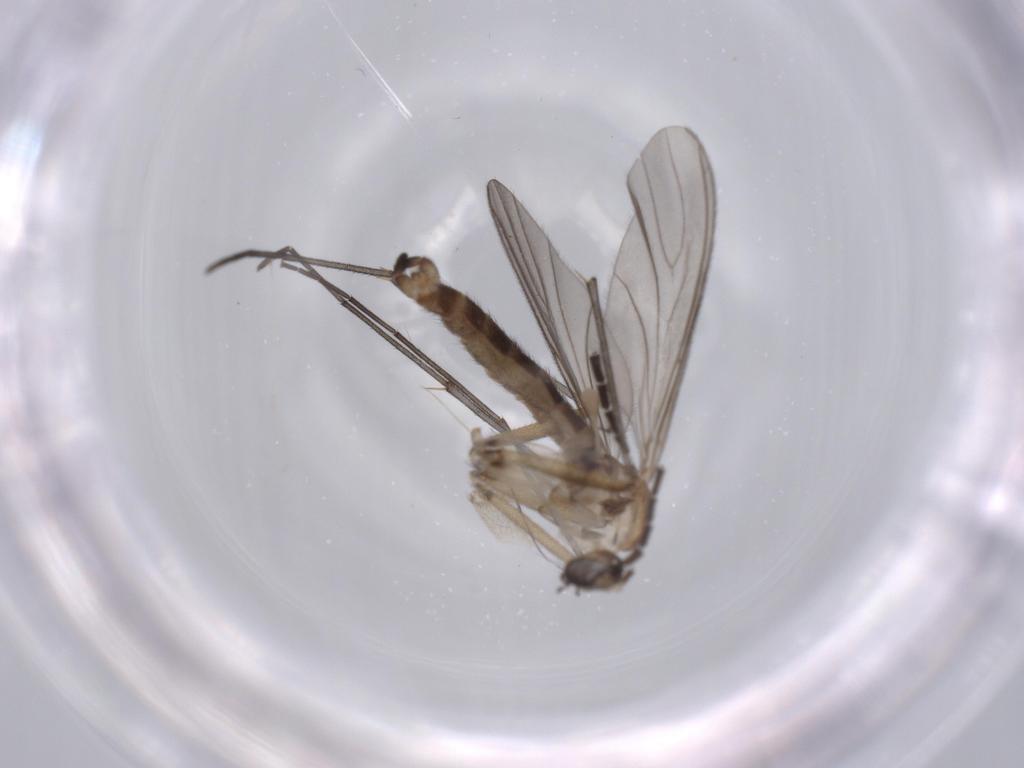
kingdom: Animalia
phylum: Arthropoda
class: Insecta
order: Diptera
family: Sciaridae
